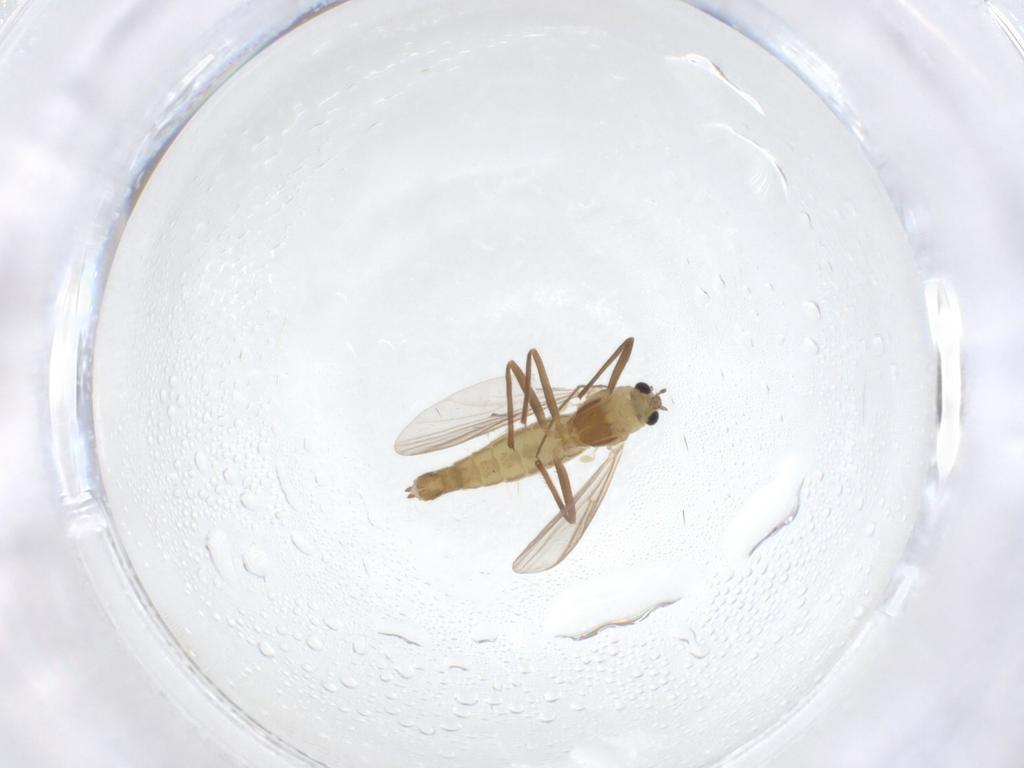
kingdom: Animalia
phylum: Arthropoda
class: Insecta
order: Diptera
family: Chironomidae
